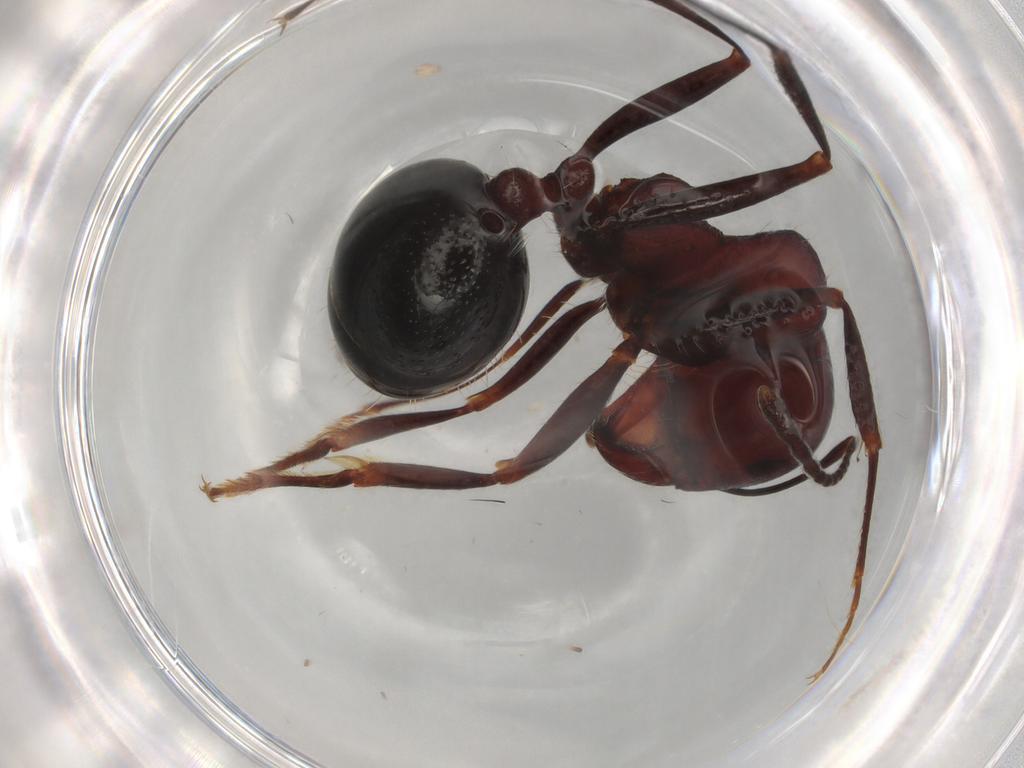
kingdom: Animalia
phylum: Arthropoda
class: Insecta
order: Hymenoptera
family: Formicidae
